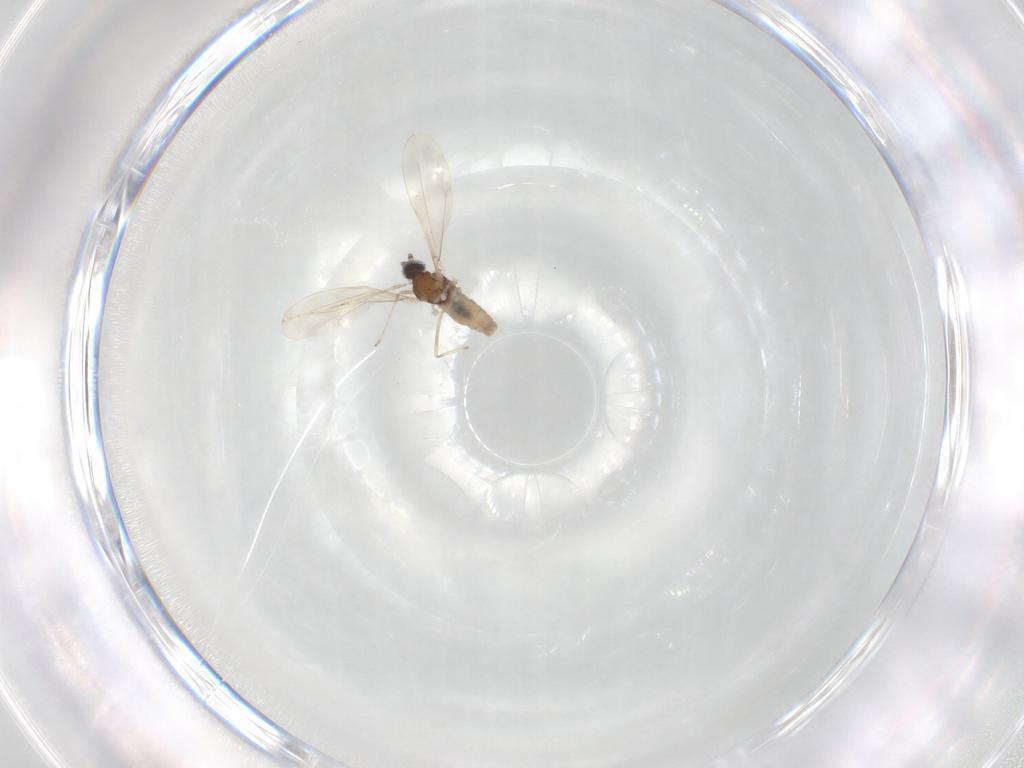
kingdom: Animalia
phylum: Arthropoda
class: Insecta
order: Diptera
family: Cecidomyiidae
